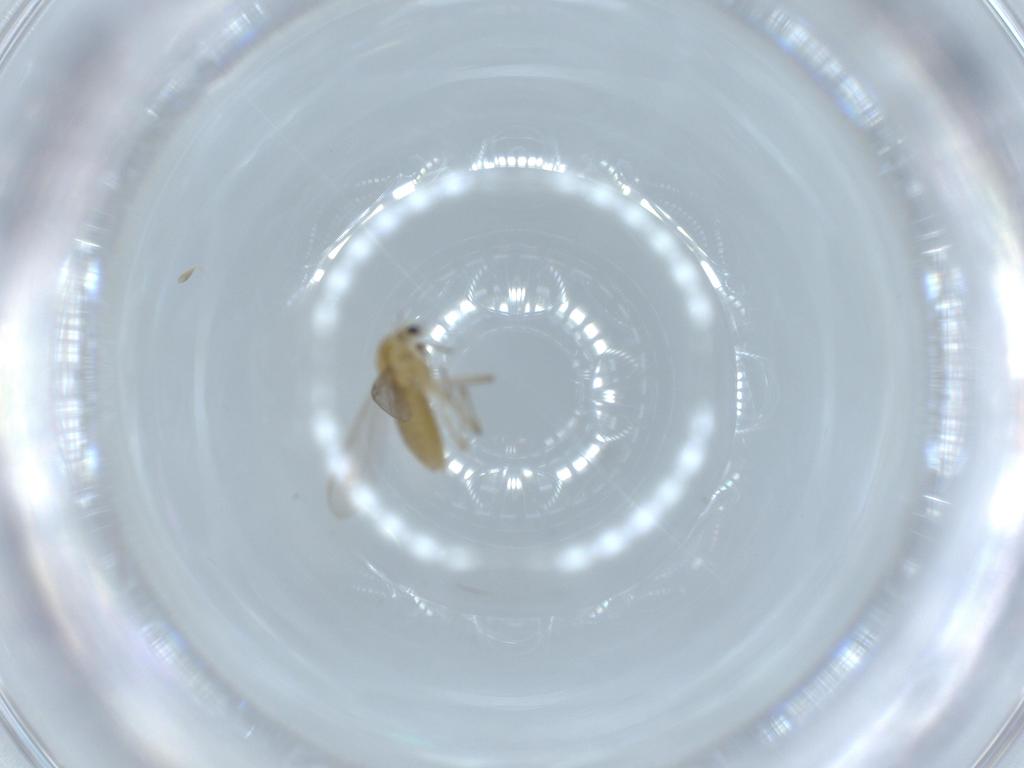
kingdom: Animalia
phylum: Arthropoda
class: Insecta
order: Diptera
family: Chironomidae
